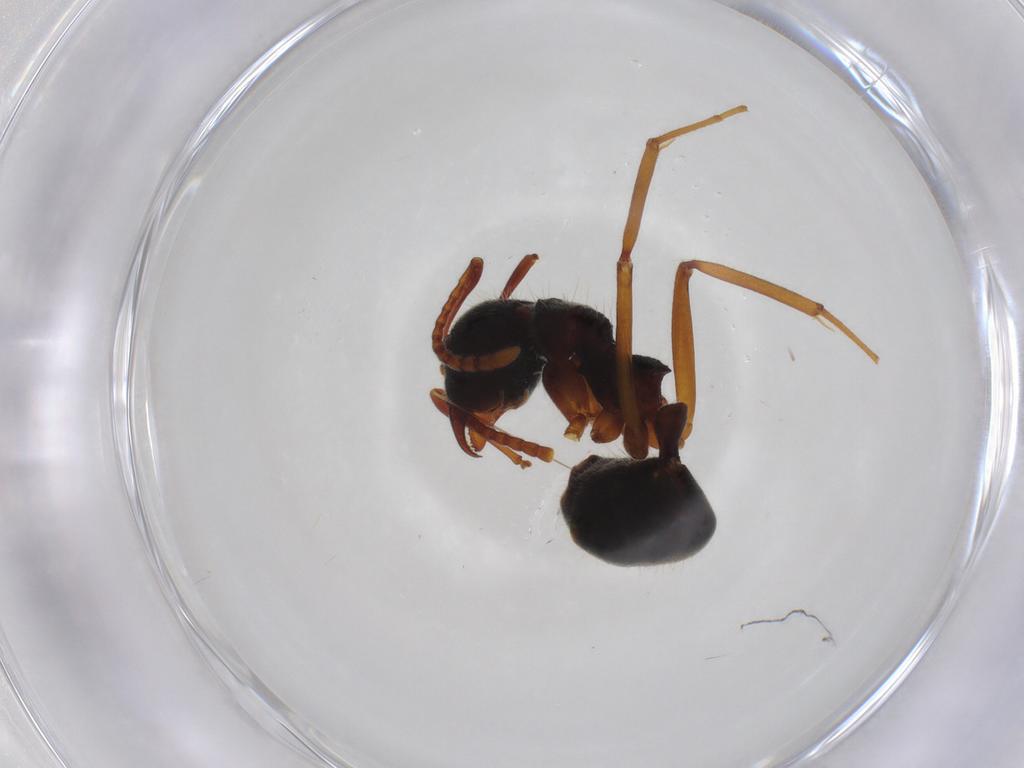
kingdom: Animalia
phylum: Arthropoda
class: Insecta
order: Hymenoptera
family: Formicidae
